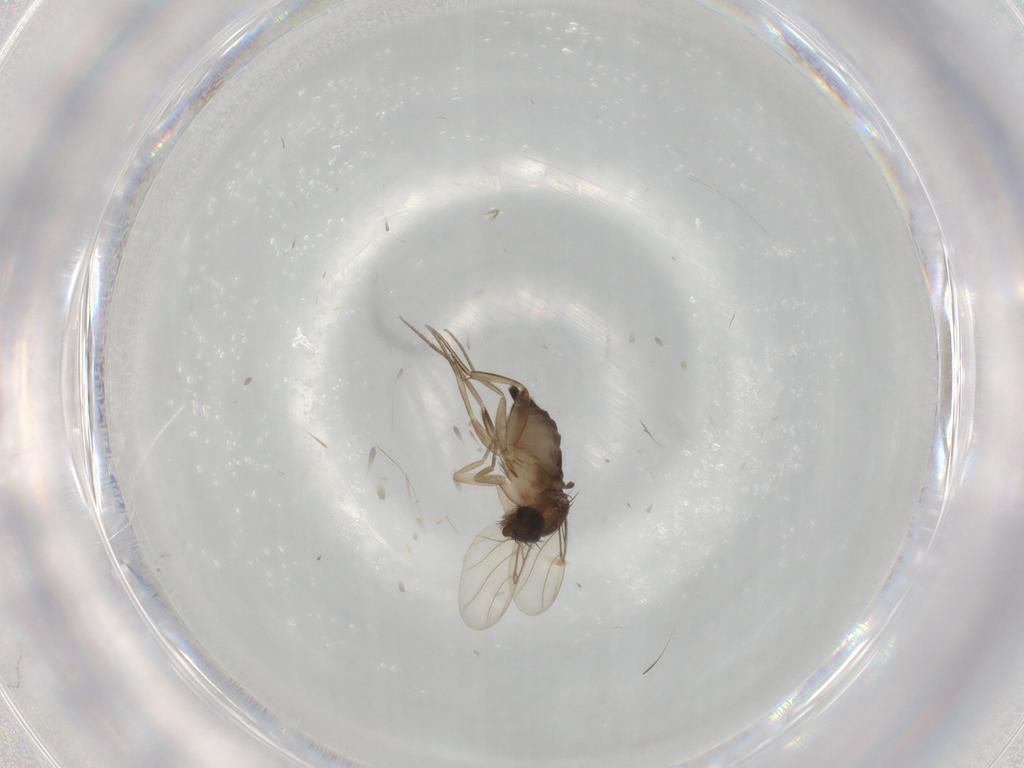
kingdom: Animalia
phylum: Arthropoda
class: Insecta
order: Diptera
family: Phoridae
